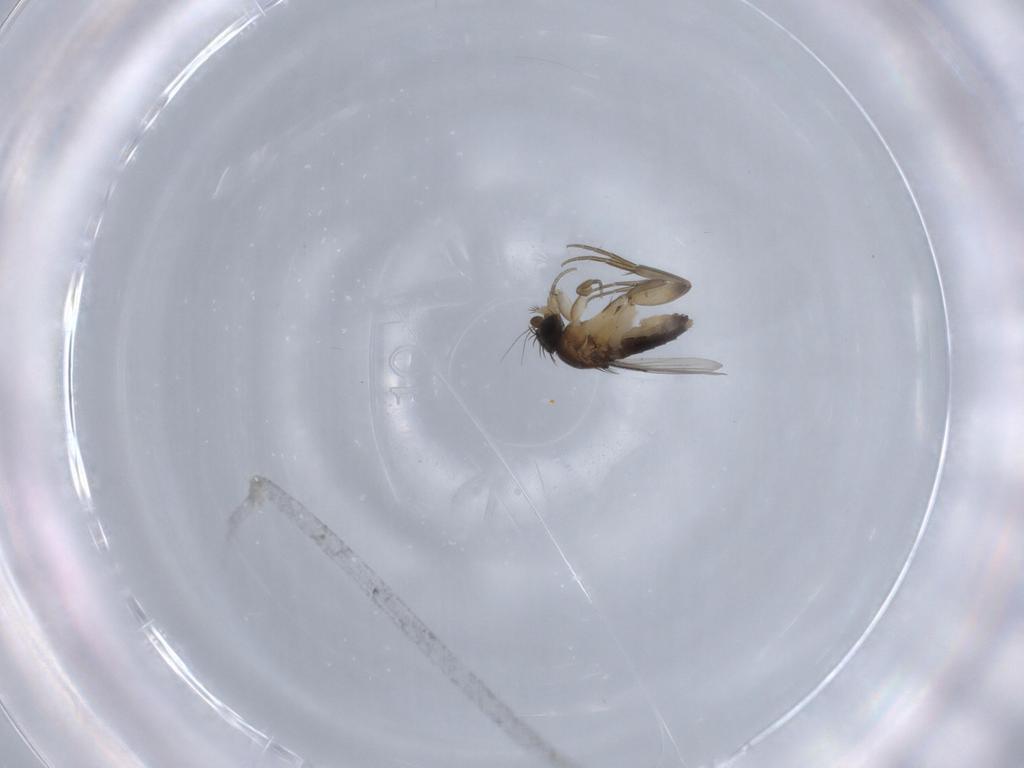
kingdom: Animalia
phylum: Arthropoda
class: Insecta
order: Diptera
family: Phoridae
